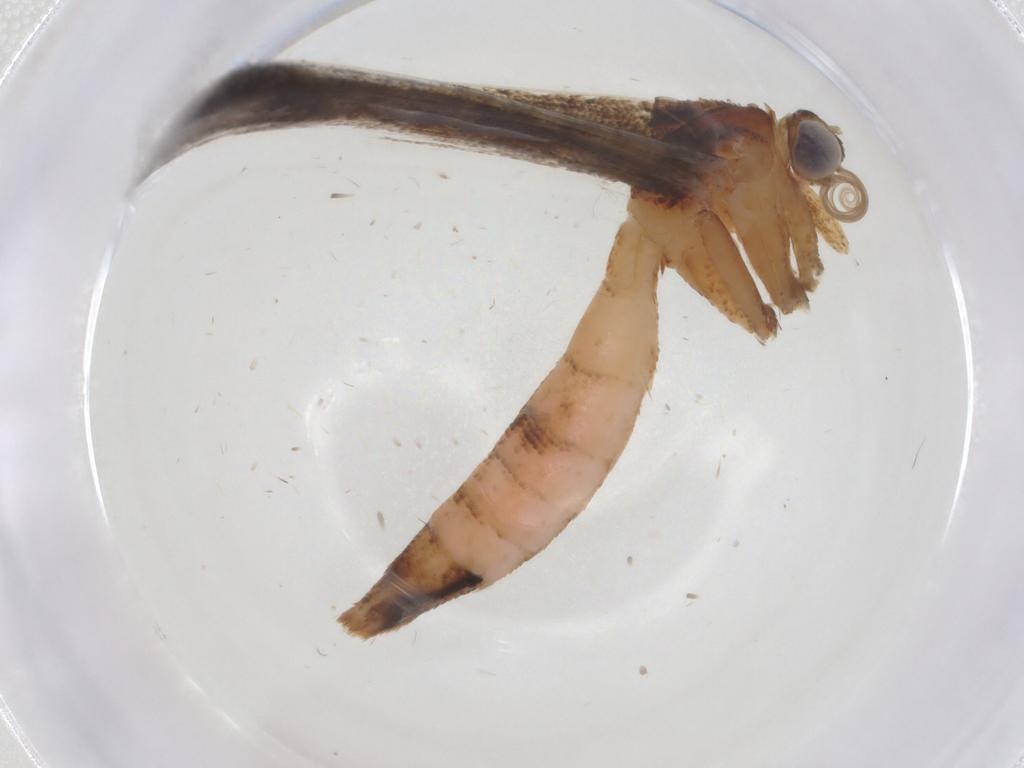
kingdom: Animalia
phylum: Arthropoda
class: Insecta
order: Lepidoptera
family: Pterophoridae
